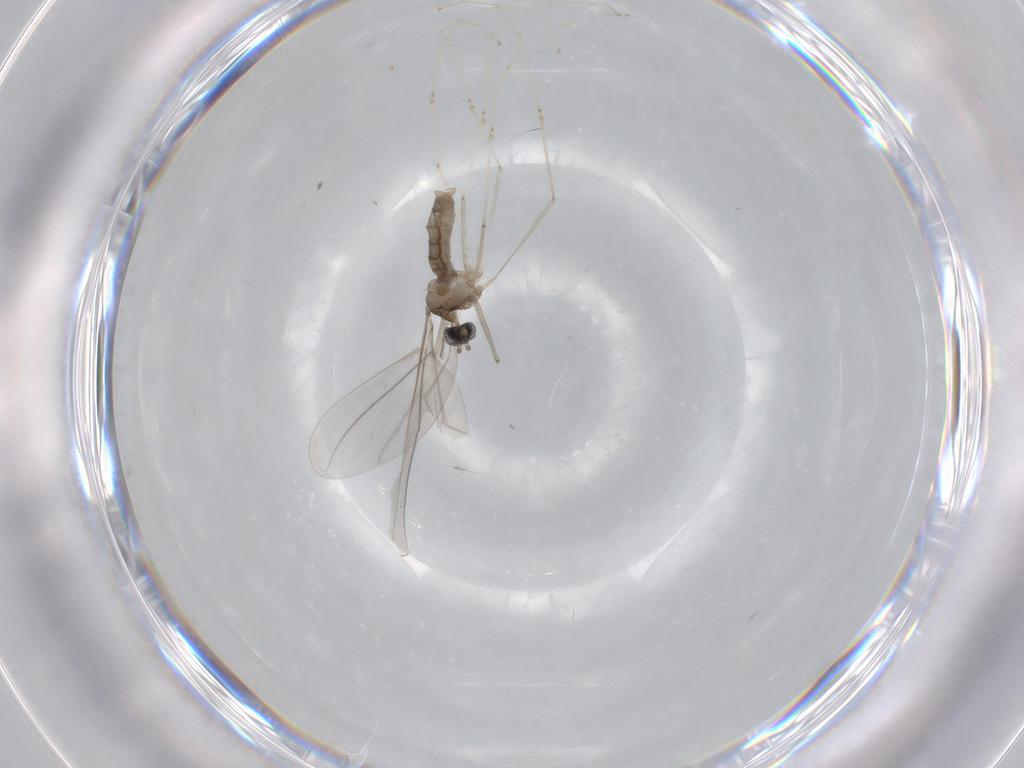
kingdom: Animalia
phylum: Arthropoda
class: Insecta
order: Diptera
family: Cecidomyiidae
